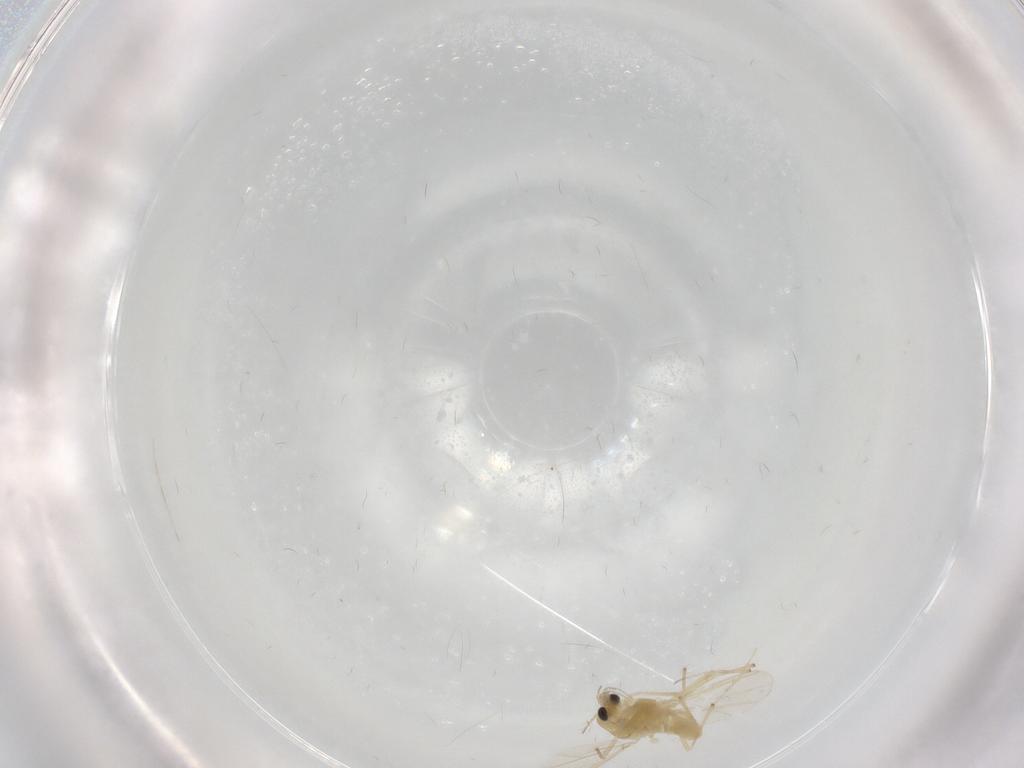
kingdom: Animalia
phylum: Arthropoda
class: Insecta
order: Diptera
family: Chironomidae
